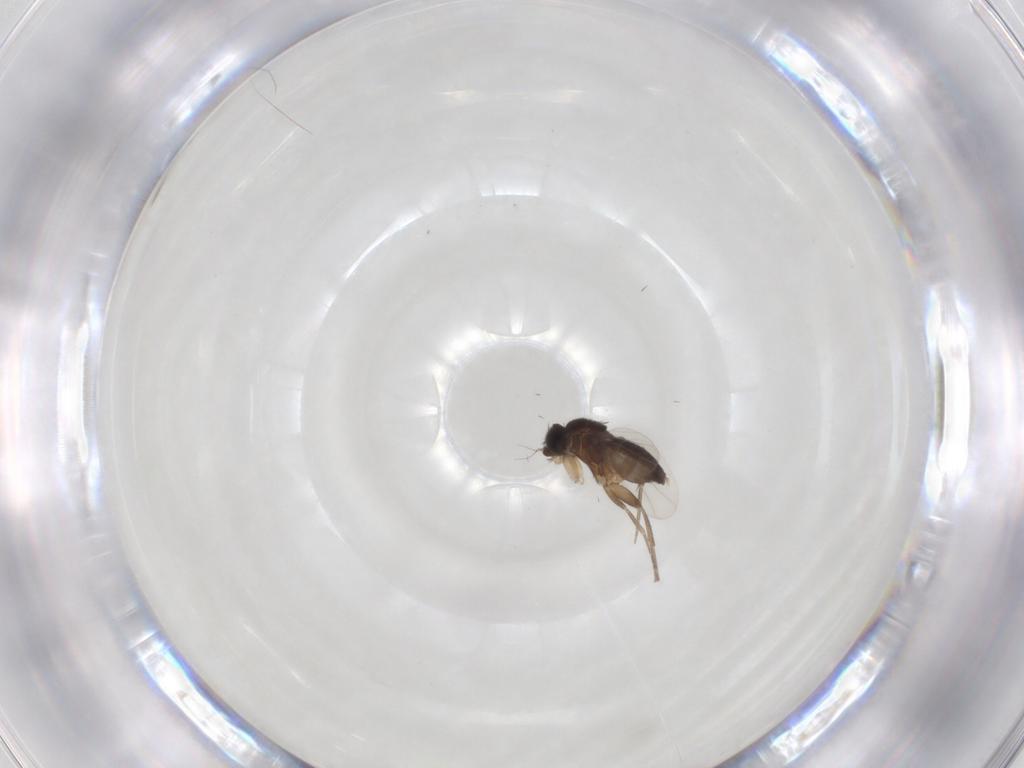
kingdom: Animalia
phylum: Arthropoda
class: Insecta
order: Diptera
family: Phoridae
